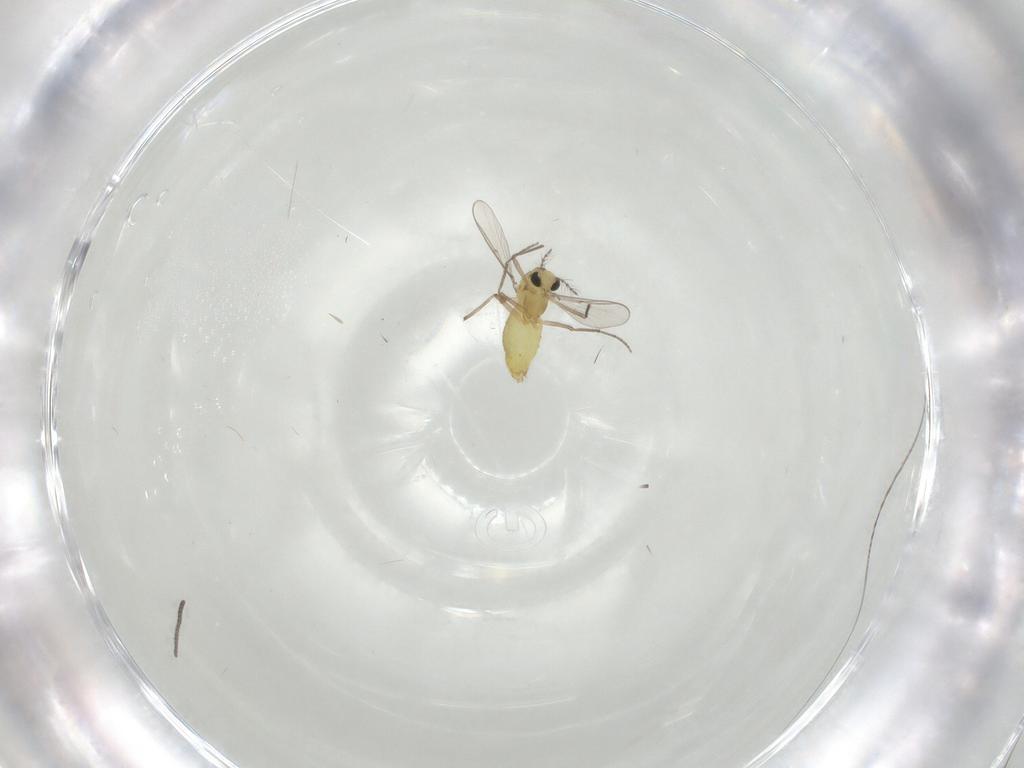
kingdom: Animalia
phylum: Arthropoda
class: Insecta
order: Diptera
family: Chironomidae
